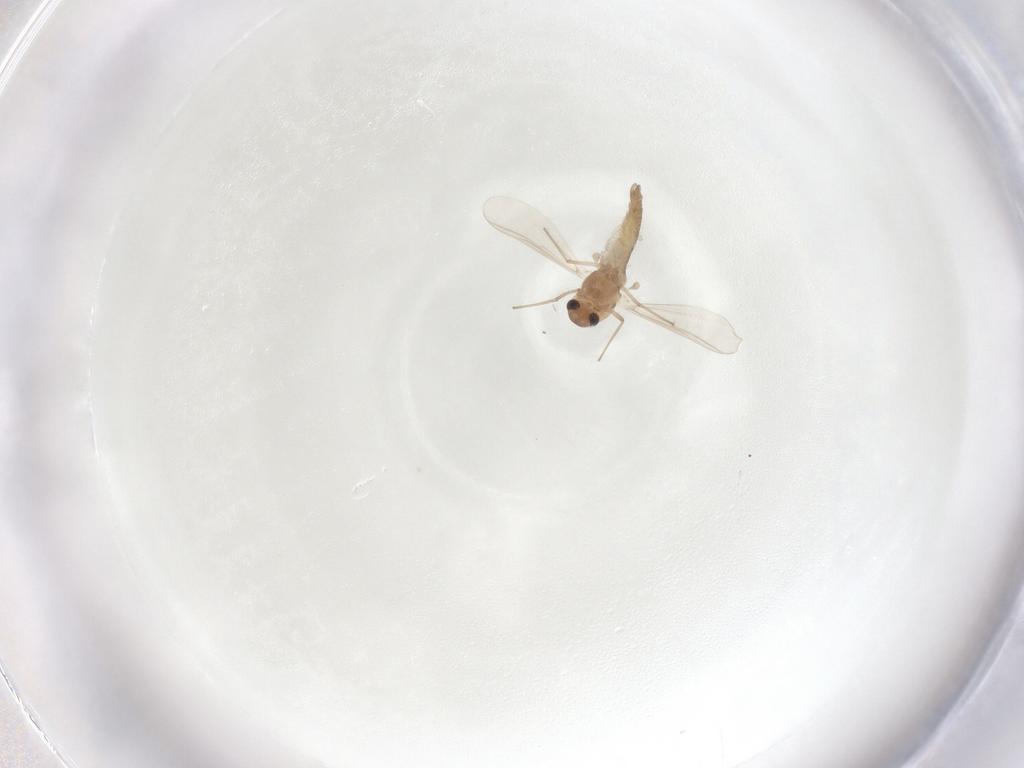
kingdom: Animalia
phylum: Arthropoda
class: Insecta
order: Diptera
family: Chironomidae
